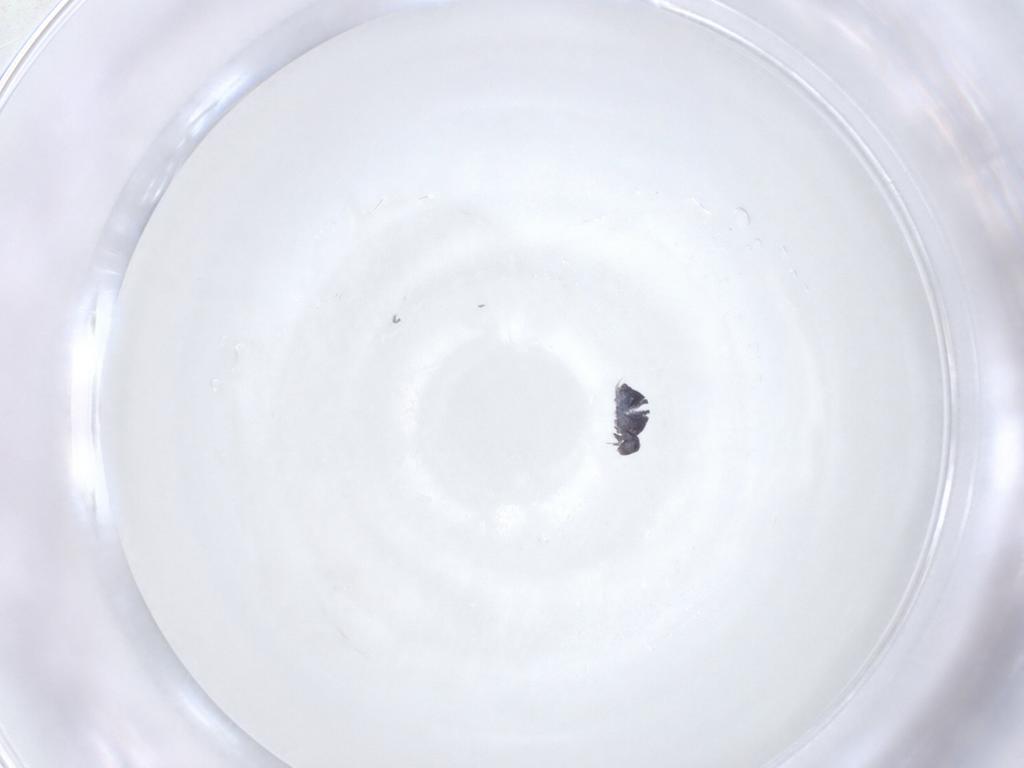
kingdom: Animalia
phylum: Arthropoda
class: Collembola
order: Symphypleona
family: Katiannidae
